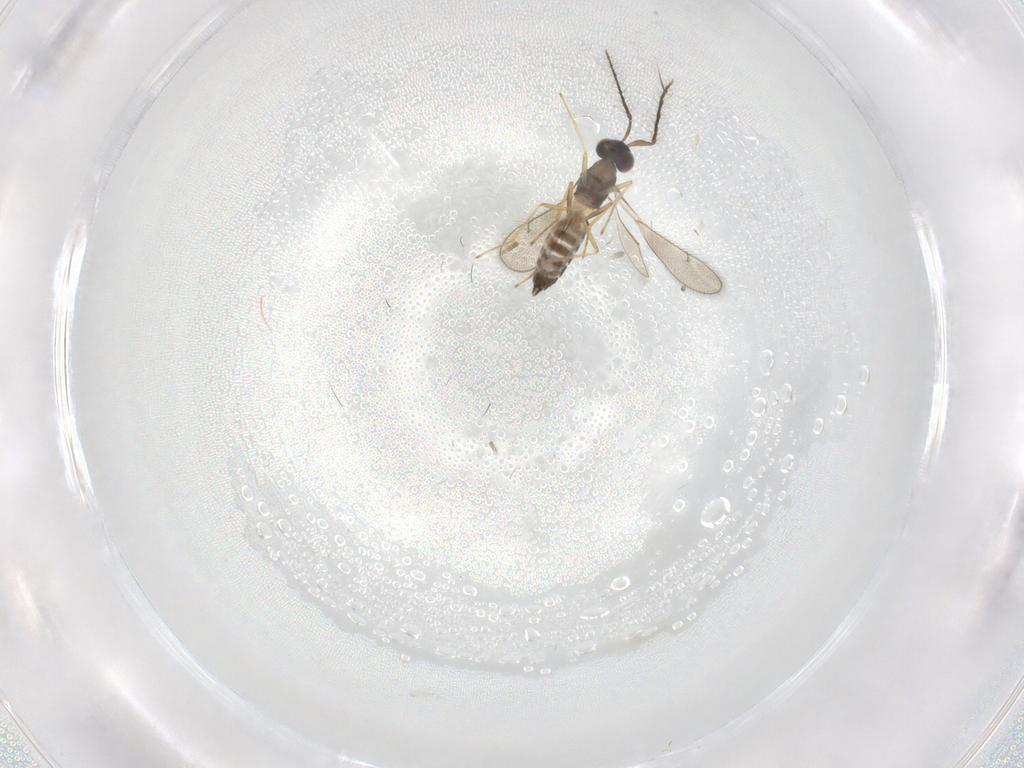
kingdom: Animalia
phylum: Arthropoda
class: Insecta
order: Hymenoptera
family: Eulophidae
